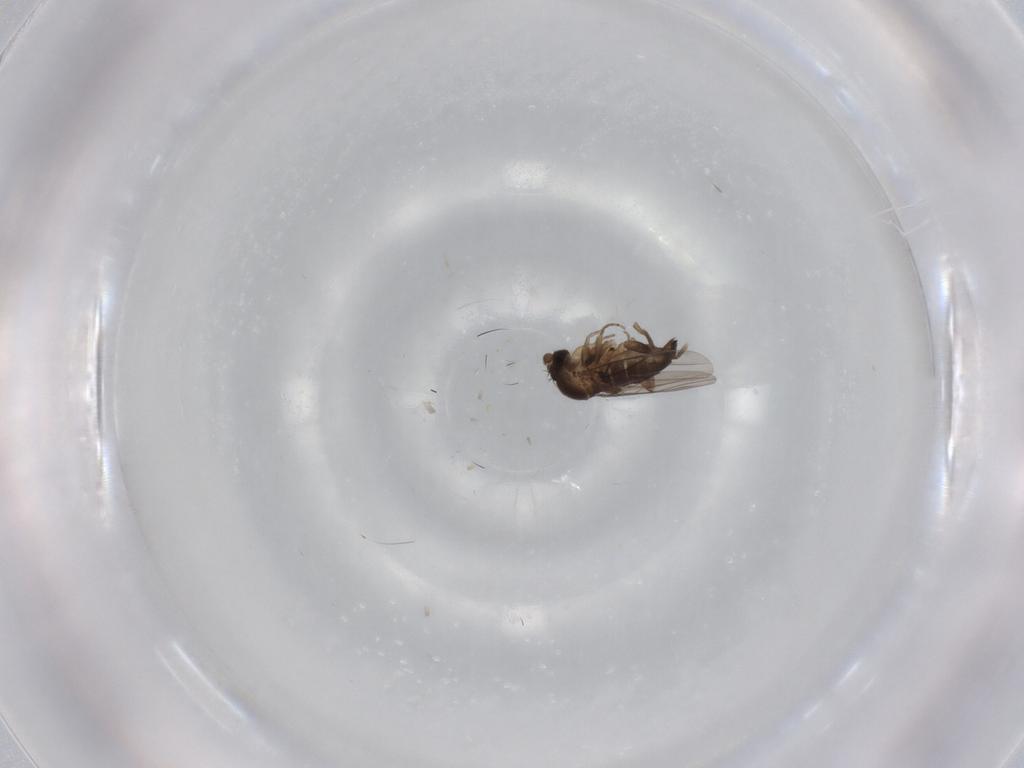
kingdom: Animalia
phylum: Arthropoda
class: Insecta
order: Diptera
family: Phoridae
